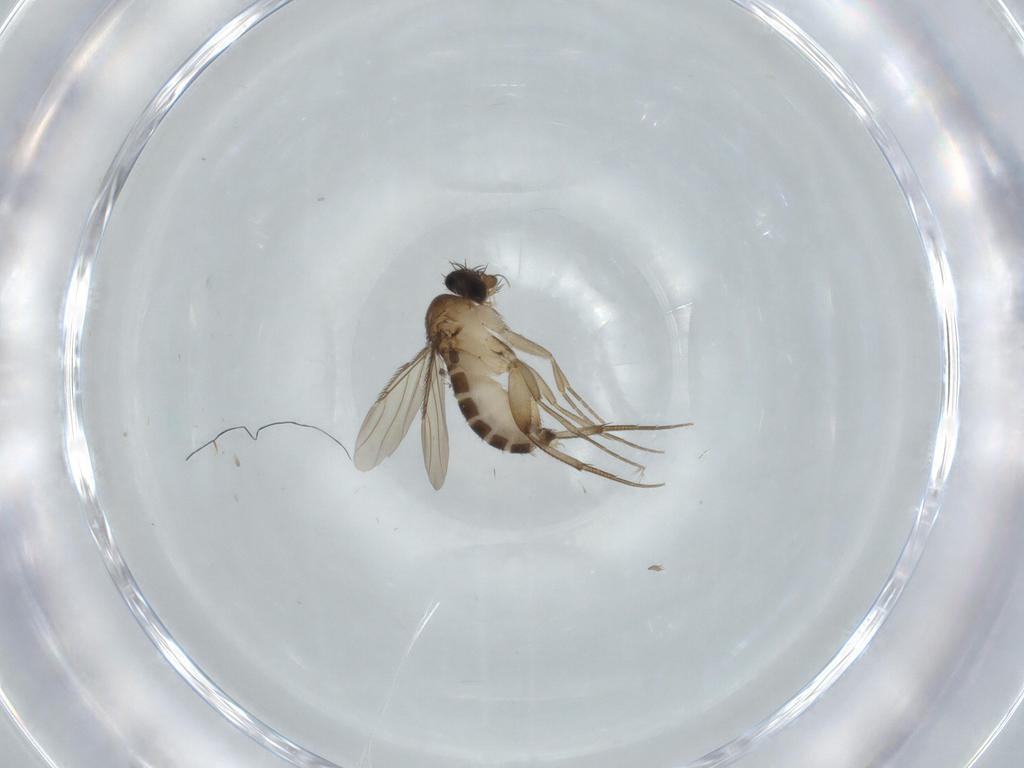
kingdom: Animalia
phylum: Arthropoda
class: Insecta
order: Diptera
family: Phoridae
